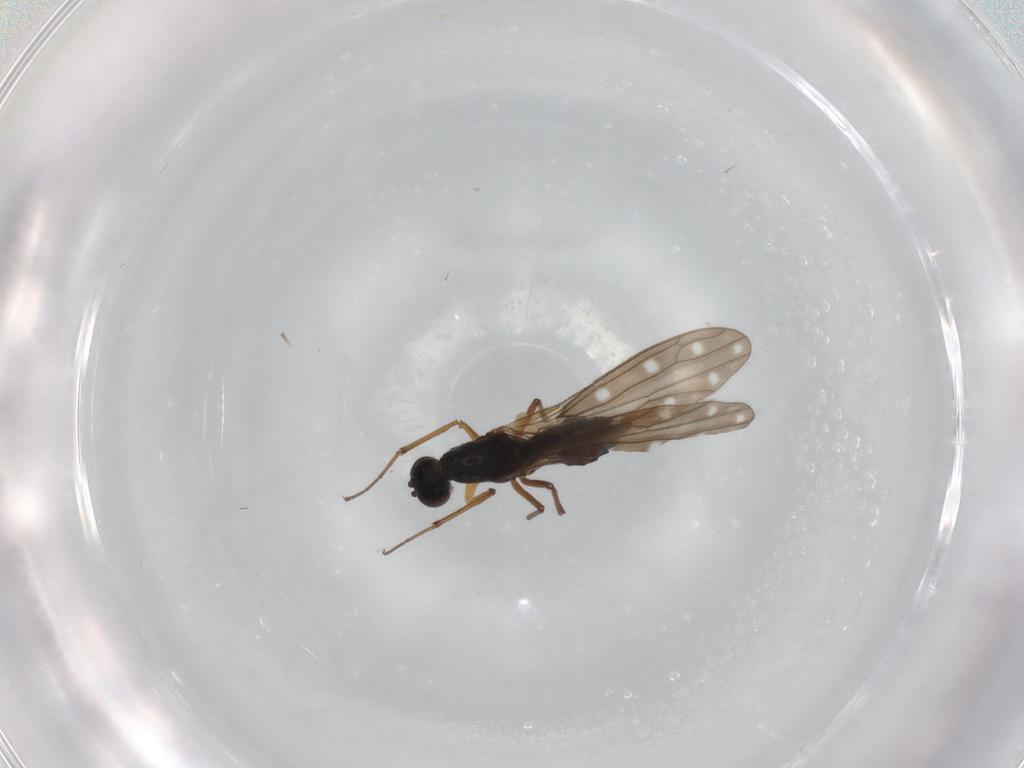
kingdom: Animalia
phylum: Arthropoda
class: Insecta
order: Diptera
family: Empididae
